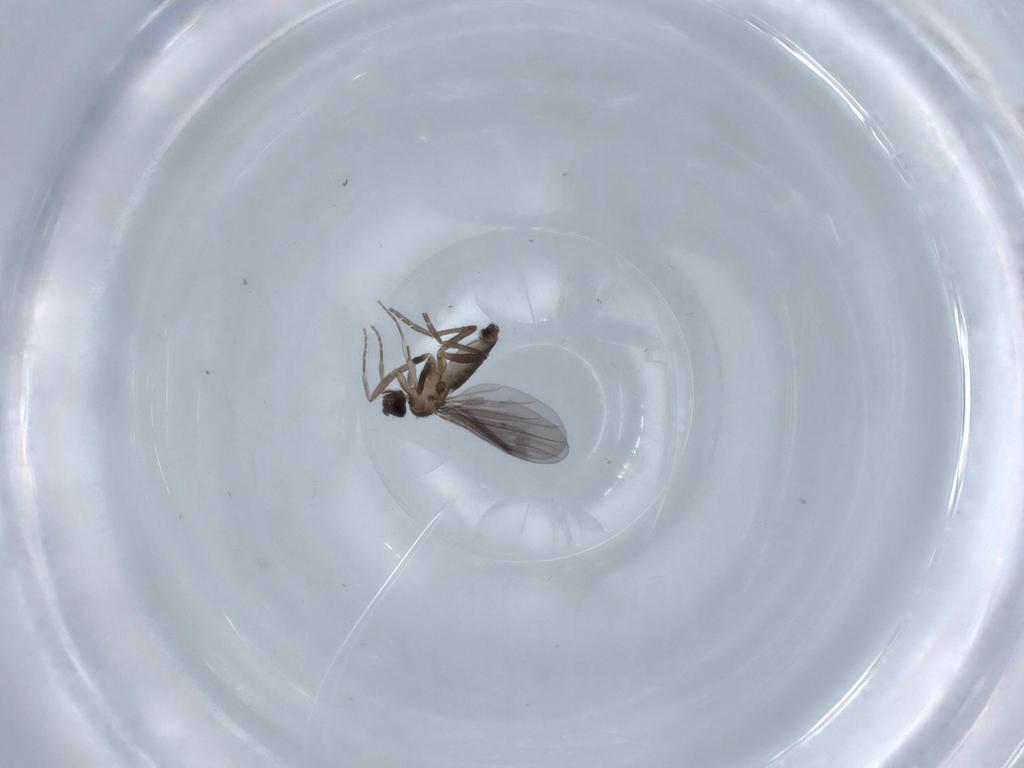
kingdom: Animalia
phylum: Arthropoda
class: Insecta
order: Diptera
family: Phoridae
